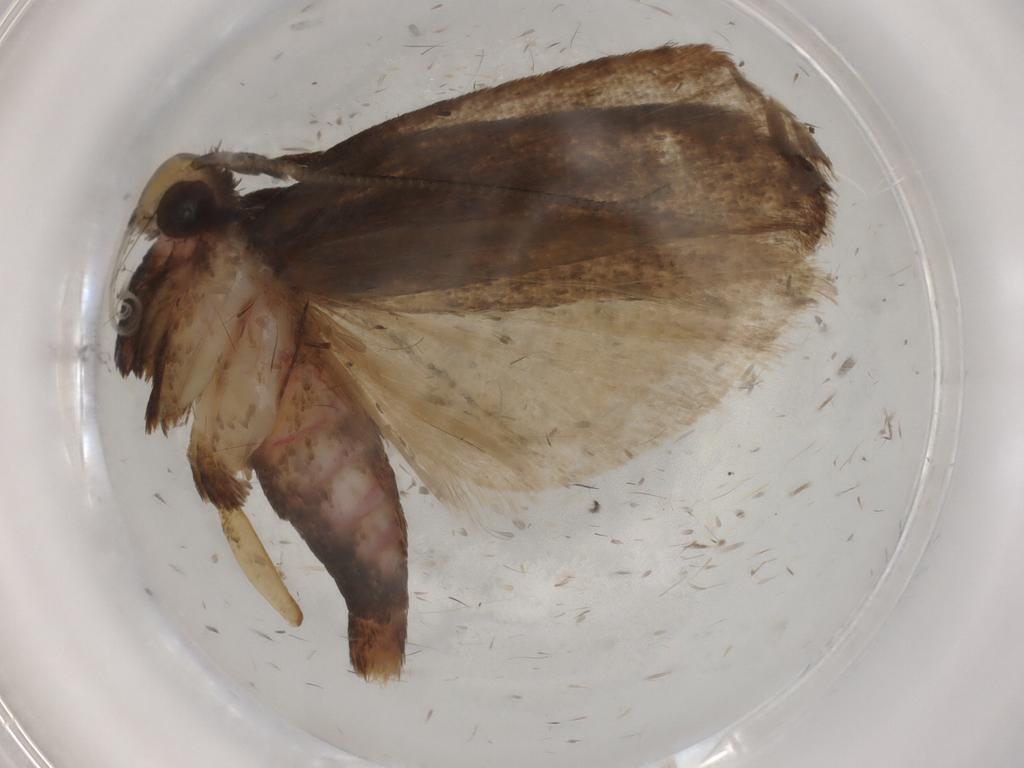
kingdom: Animalia
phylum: Arthropoda
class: Insecta
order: Lepidoptera
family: Autostichidae
